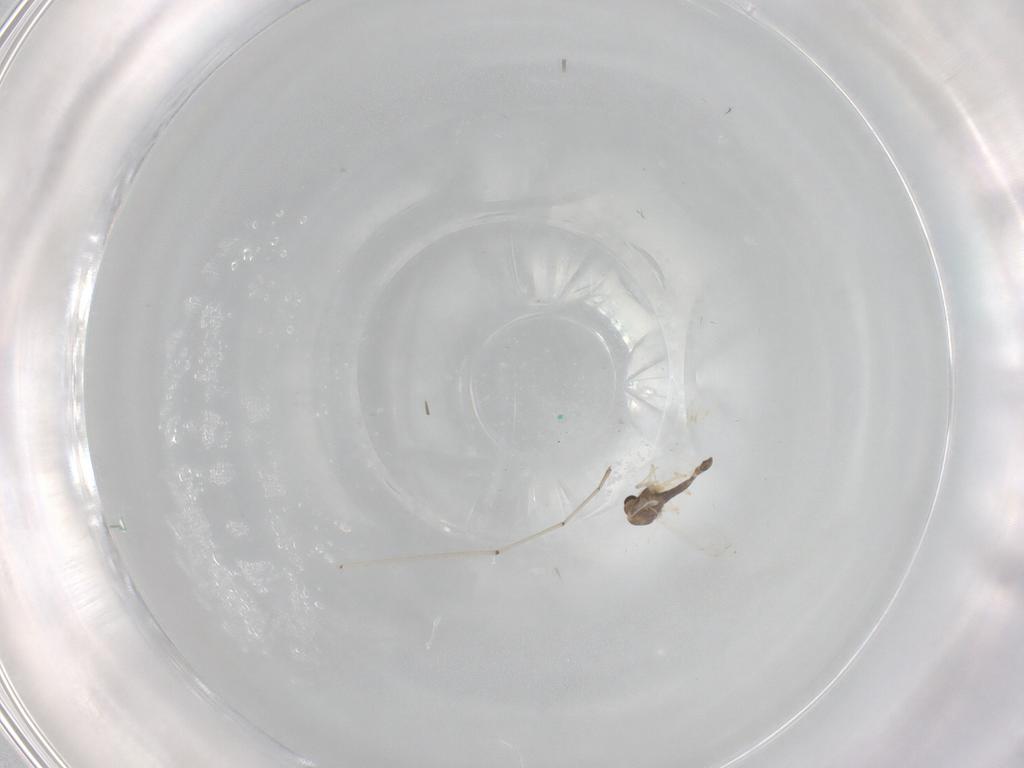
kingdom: Animalia
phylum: Arthropoda
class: Insecta
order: Diptera
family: Chironomidae
